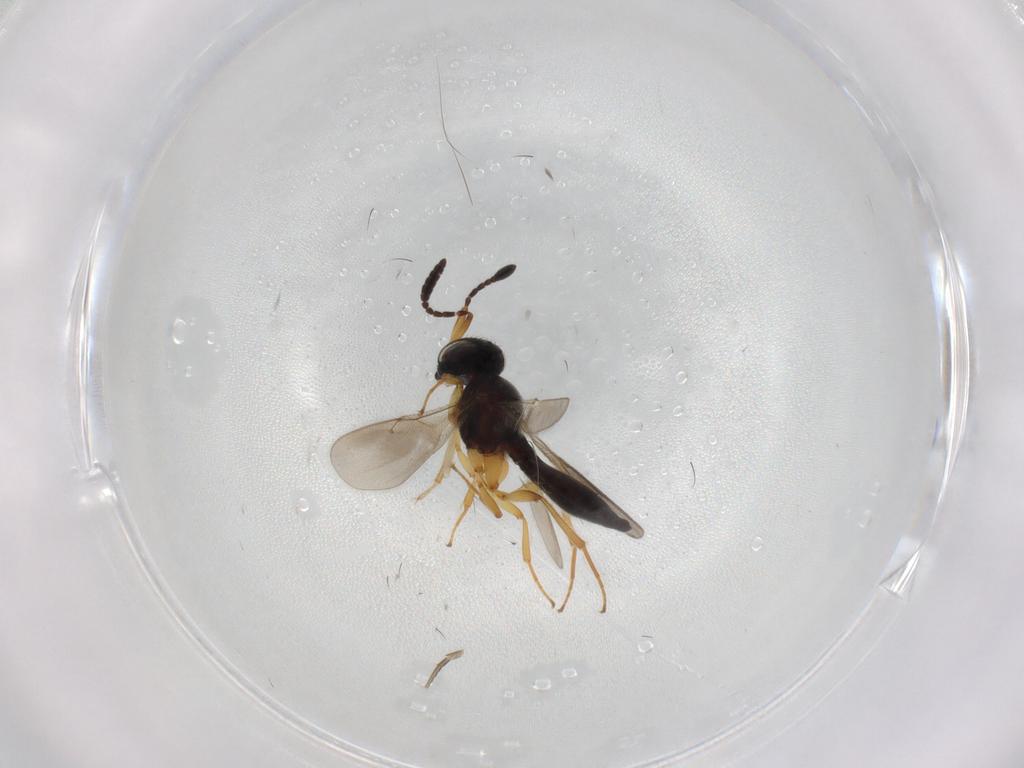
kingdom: Animalia
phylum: Arthropoda
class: Insecta
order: Hymenoptera
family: Scelionidae
